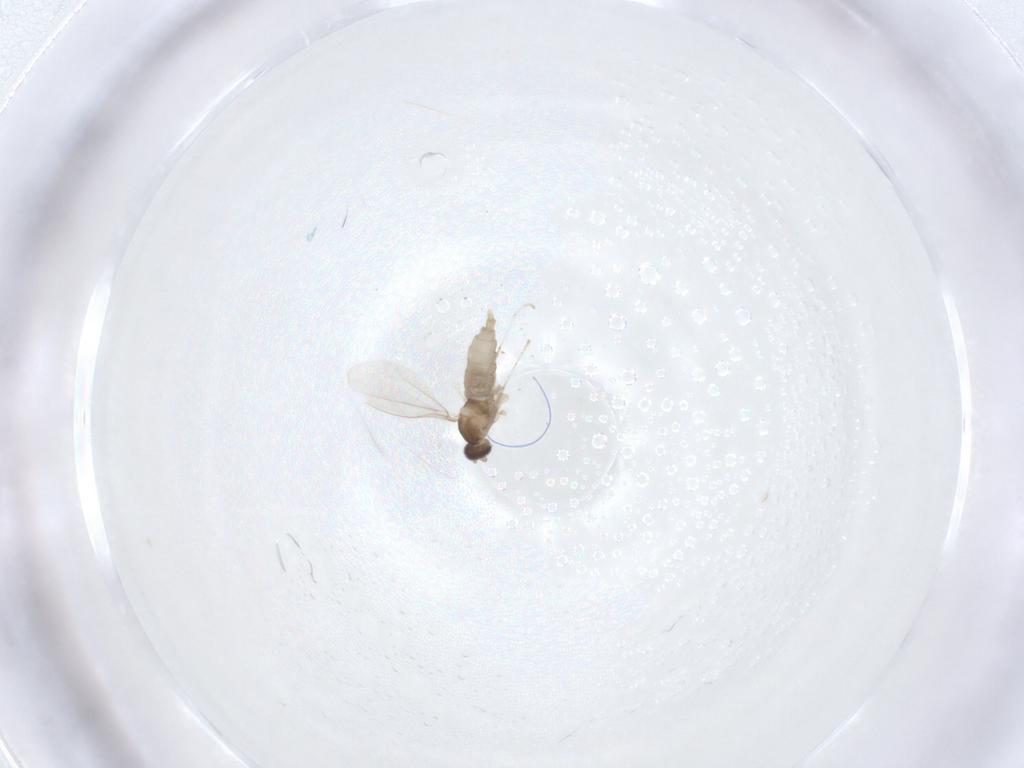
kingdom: Animalia
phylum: Arthropoda
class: Insecta
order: Diptera
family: Cecidomyiidae
